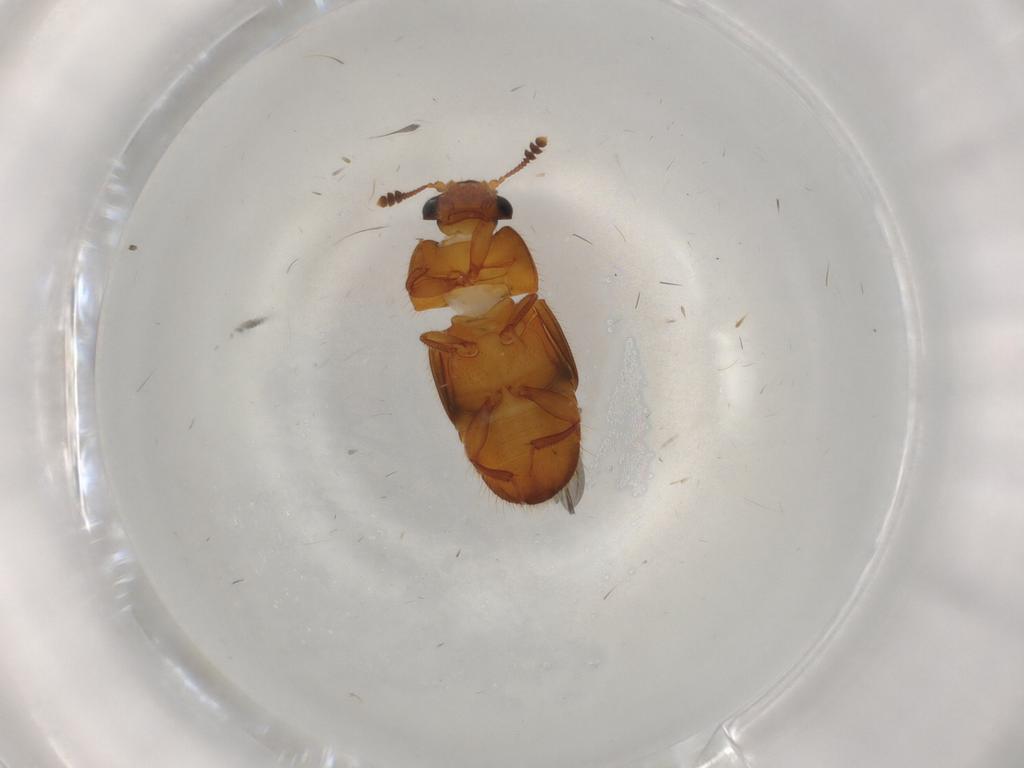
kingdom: Animalia
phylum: Arthropoda
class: Insecta
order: Coleoptera
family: Nitidulidae
